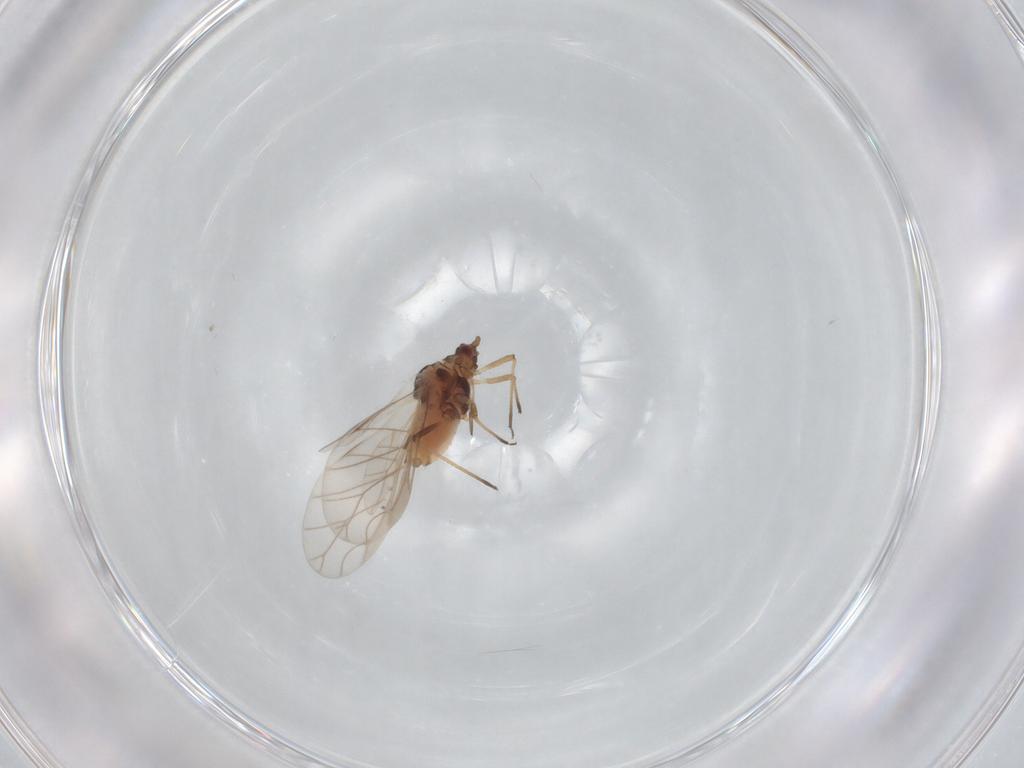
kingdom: Animalia
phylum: Arthropoda
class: Insecta
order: Hemiptera
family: Aphididae
